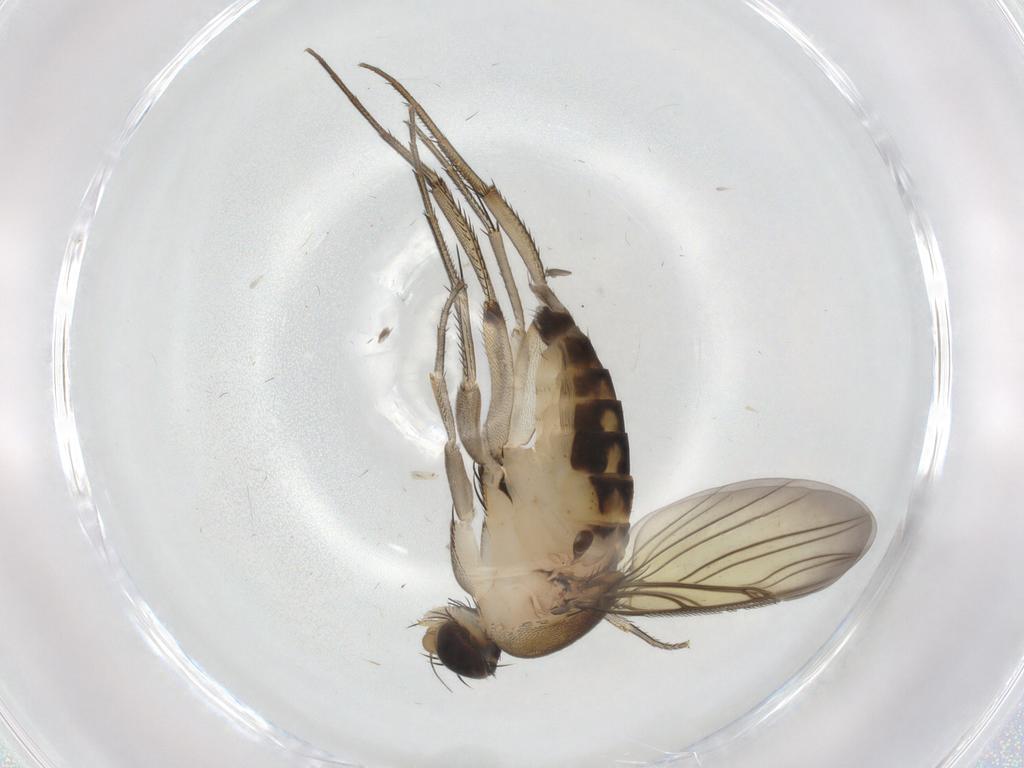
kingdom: Animalia
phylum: Arthropoda
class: Insecta
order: Diptera
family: Phoridae
